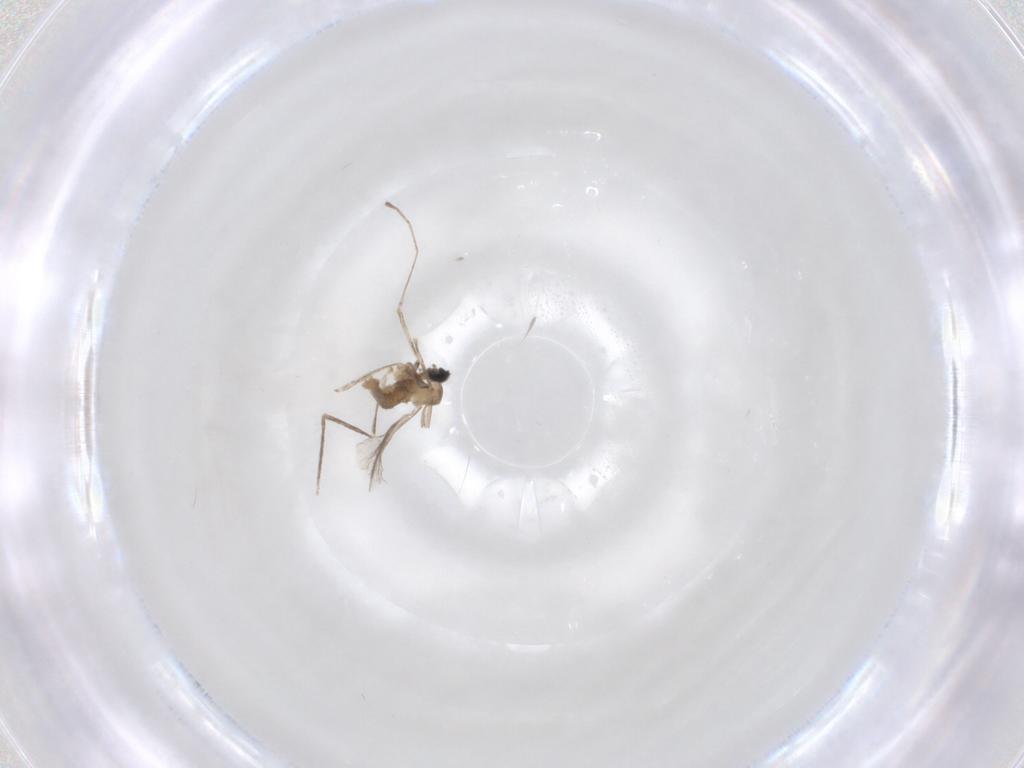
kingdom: Animalia
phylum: Arthropoda
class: Insecta
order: Diptera
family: Cecidomyiidae
